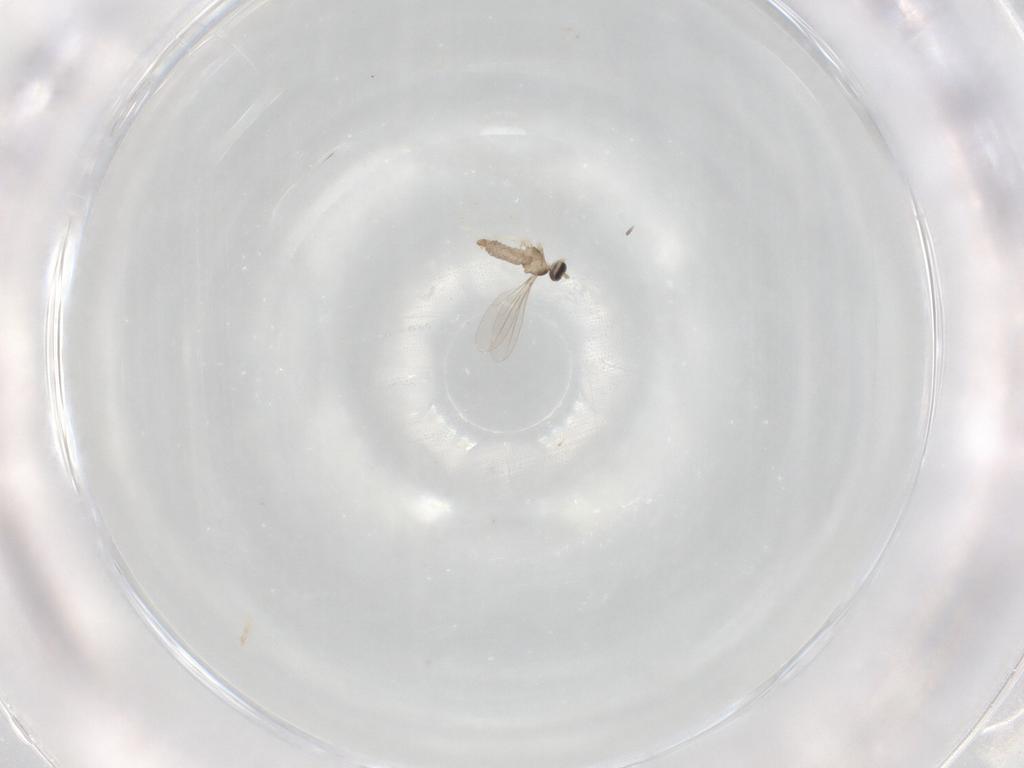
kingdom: Animalia
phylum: Arthropoda
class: Insecta
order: Diptera
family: Cecidomyiidae
